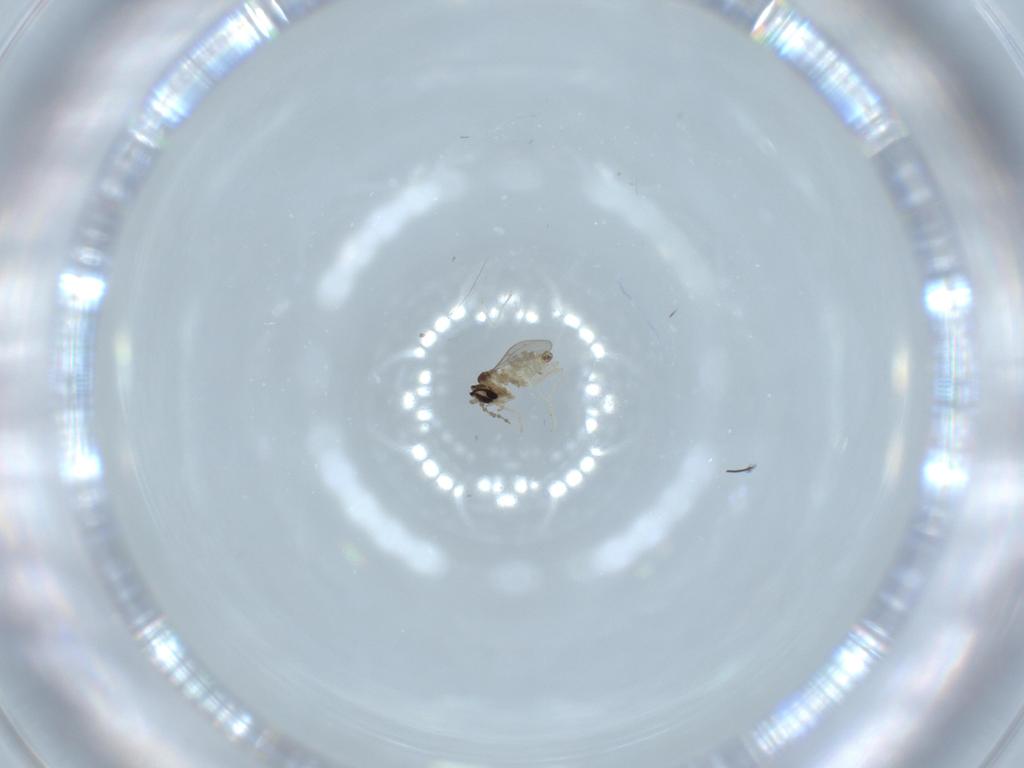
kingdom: Animalia
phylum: Arthropoda
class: Insecta
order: Diptera
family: Cecidomyiidae
